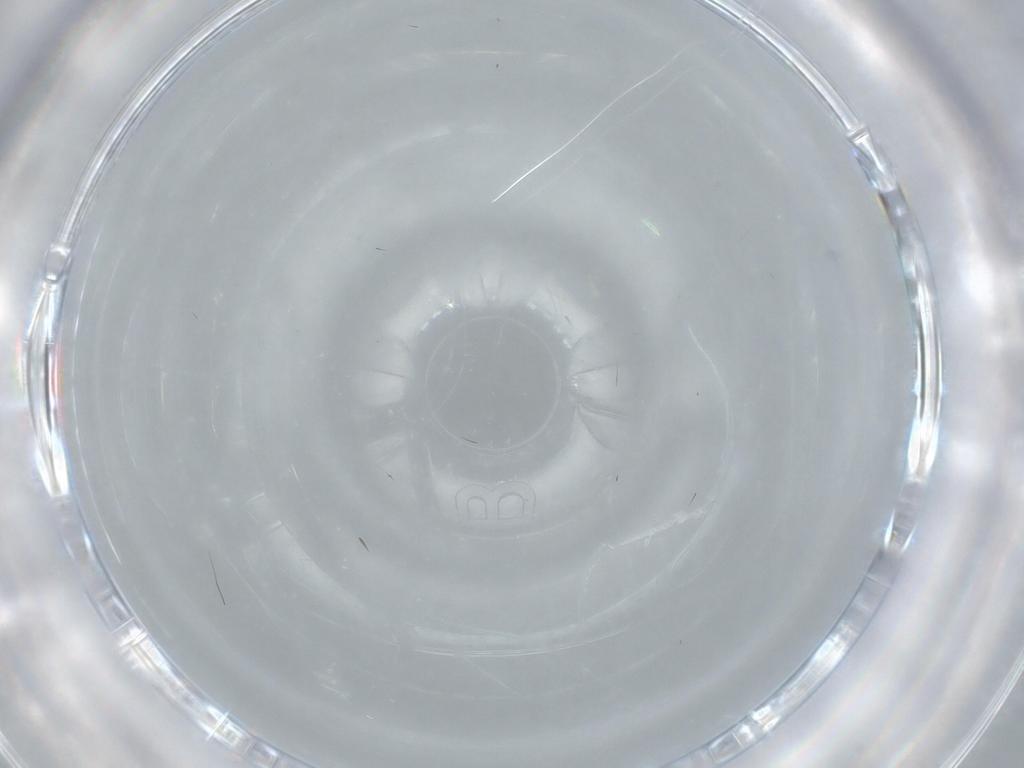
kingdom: Animalia
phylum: Arthropoda
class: Insecta
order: Diptera
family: Dolichopodidae
